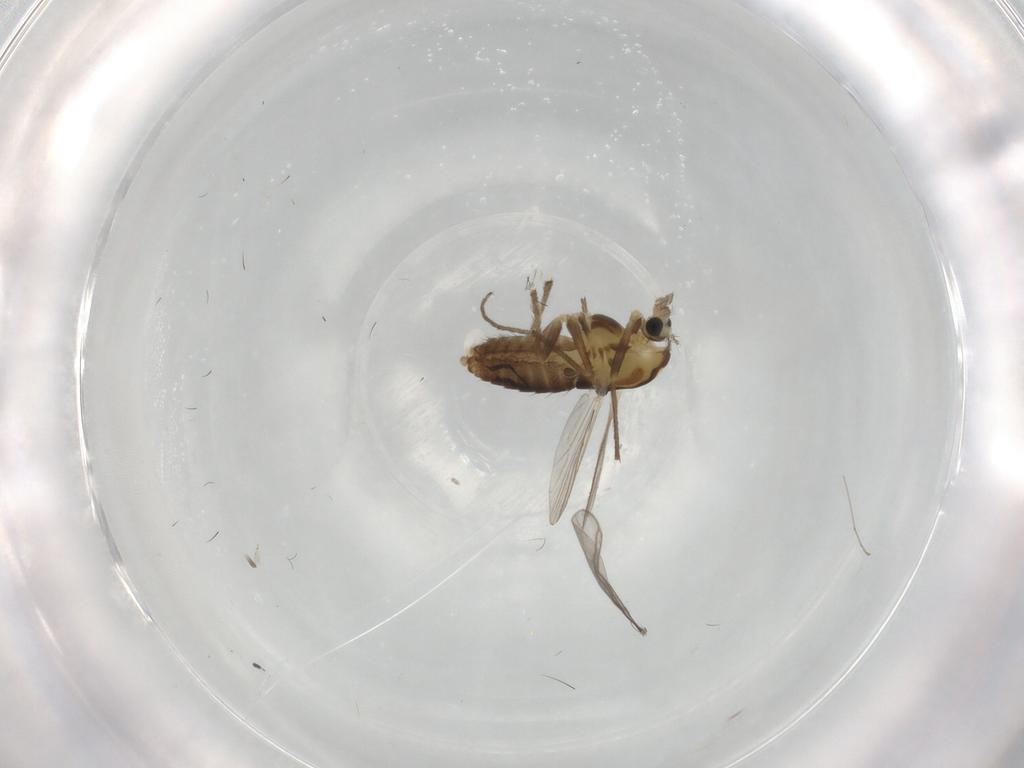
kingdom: Animalia
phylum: Arthropoda
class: Insecta
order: Diptera
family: Chironomidae
